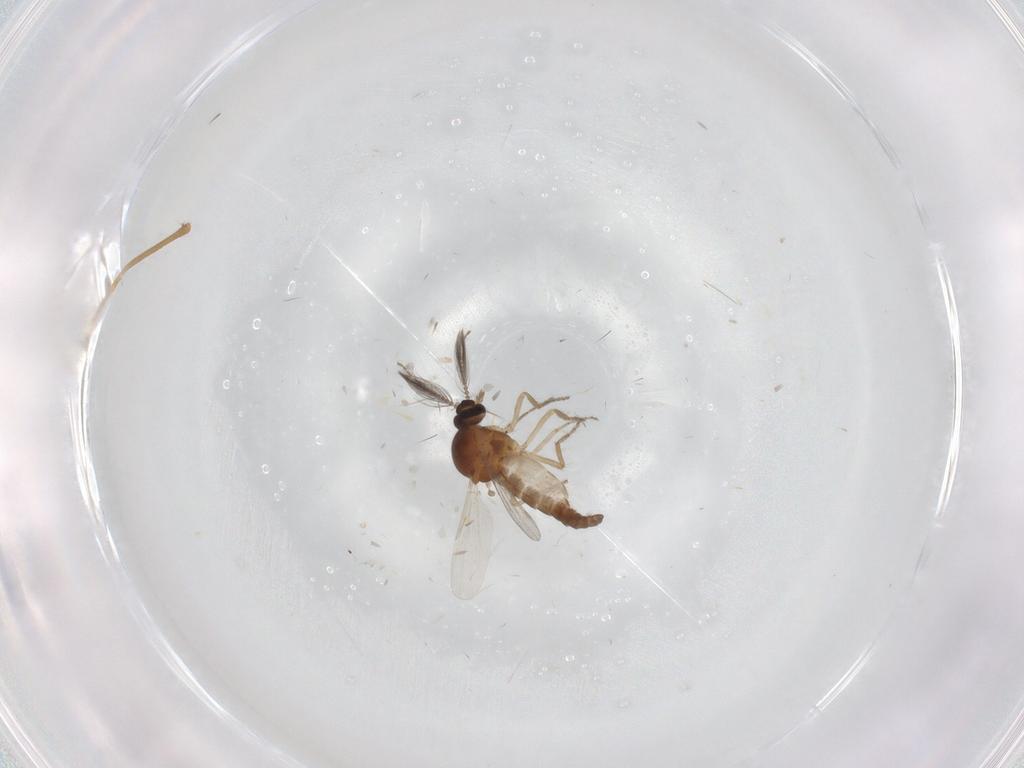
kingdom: Animalia
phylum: Arthropoda
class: Insecta
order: Diptera
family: Ceratopogonidae
